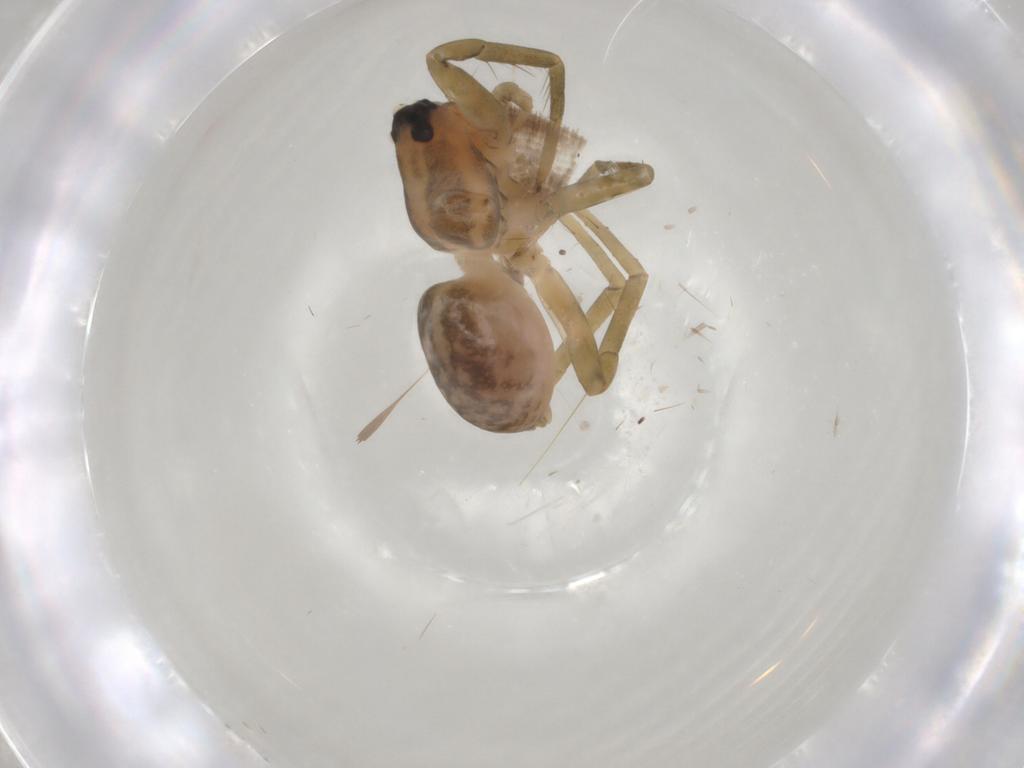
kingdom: Animalia
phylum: Arthropoda
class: Arachnida
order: Araneae
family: Lycosidae
